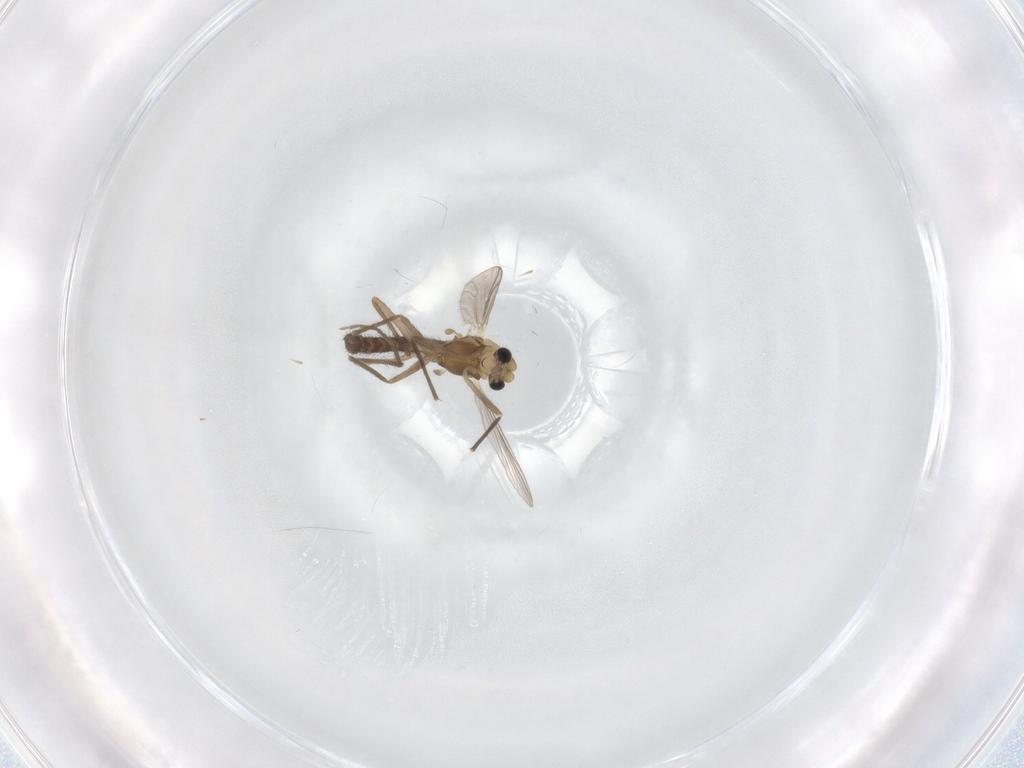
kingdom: Animalia
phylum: Arthropoda
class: Insecta
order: Diptera
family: Chironomidae
